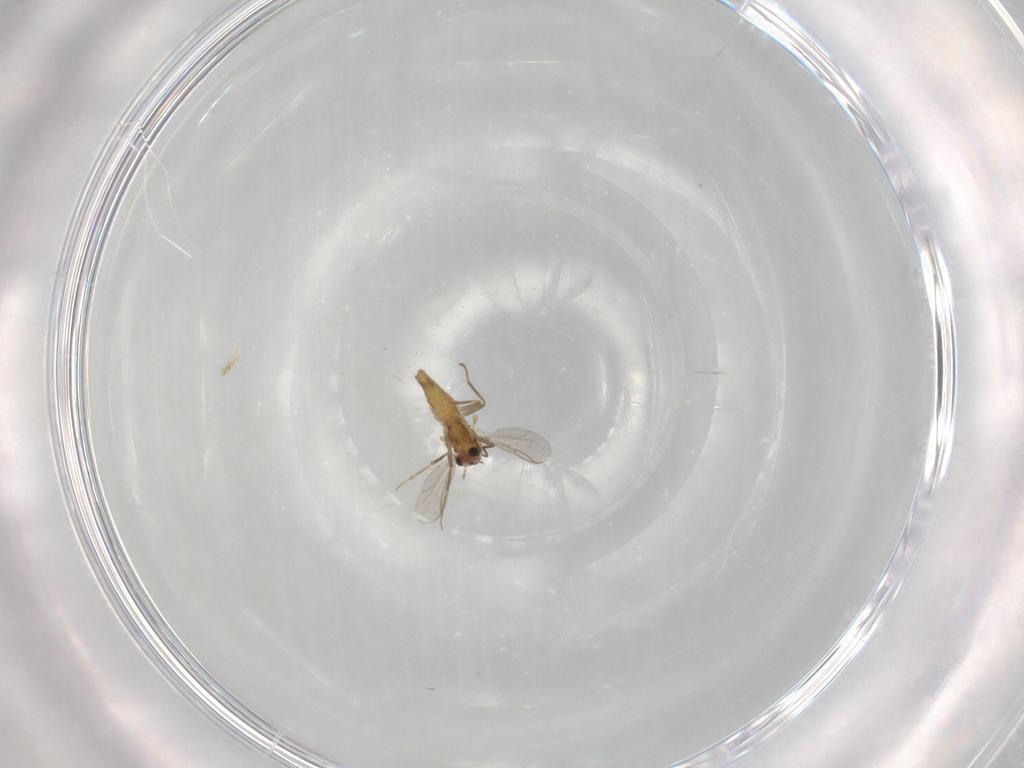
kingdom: Animalia
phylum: Arthropoda
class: Insecta
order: Diptera
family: Chironomidae
